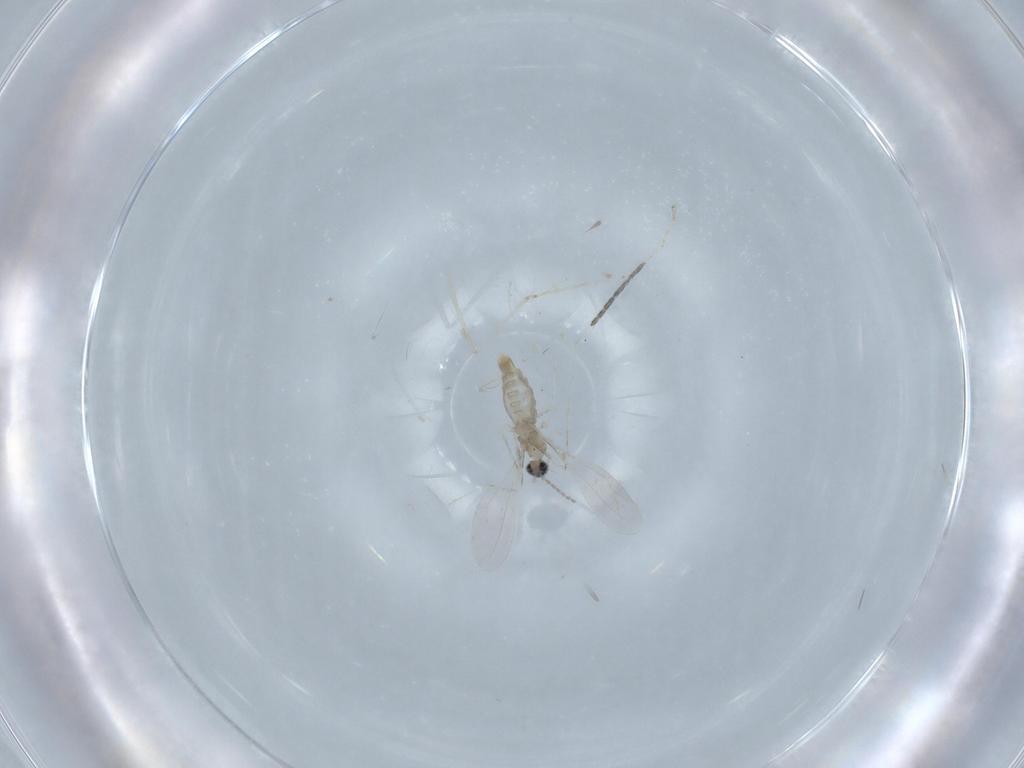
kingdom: Animalia
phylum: Arthropoda
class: Insecta
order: Diptera
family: Cecidomyiidae
